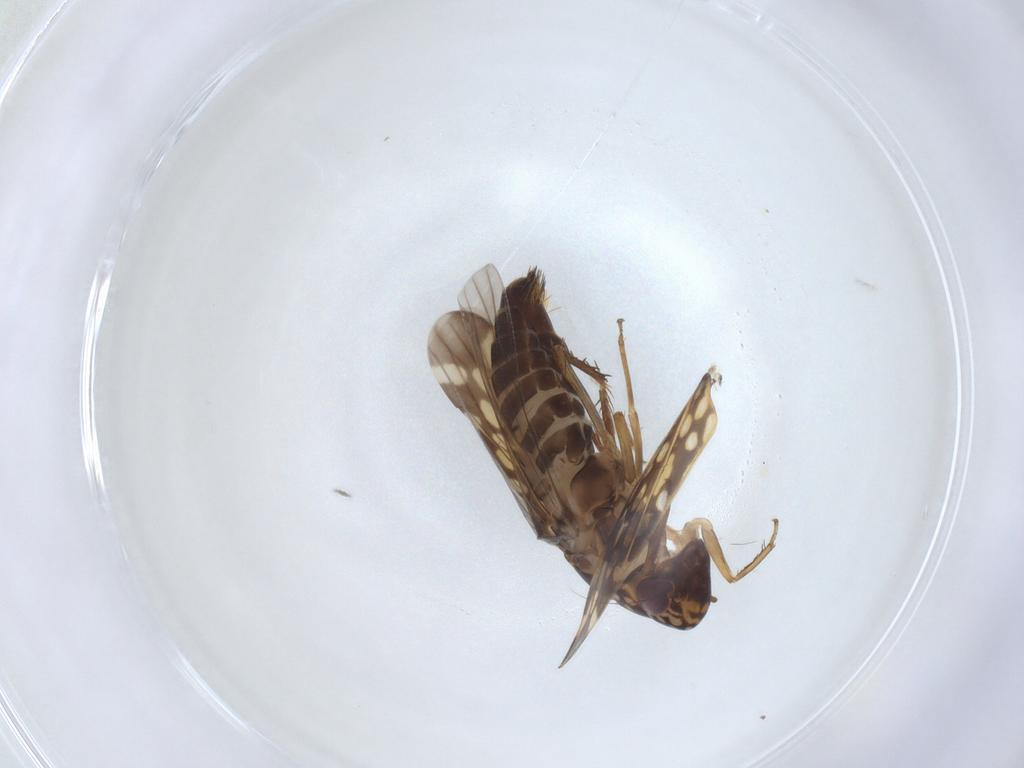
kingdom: Animalia
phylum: Arthropoda
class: Insecta
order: Hemiptera
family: Cicadellidae
